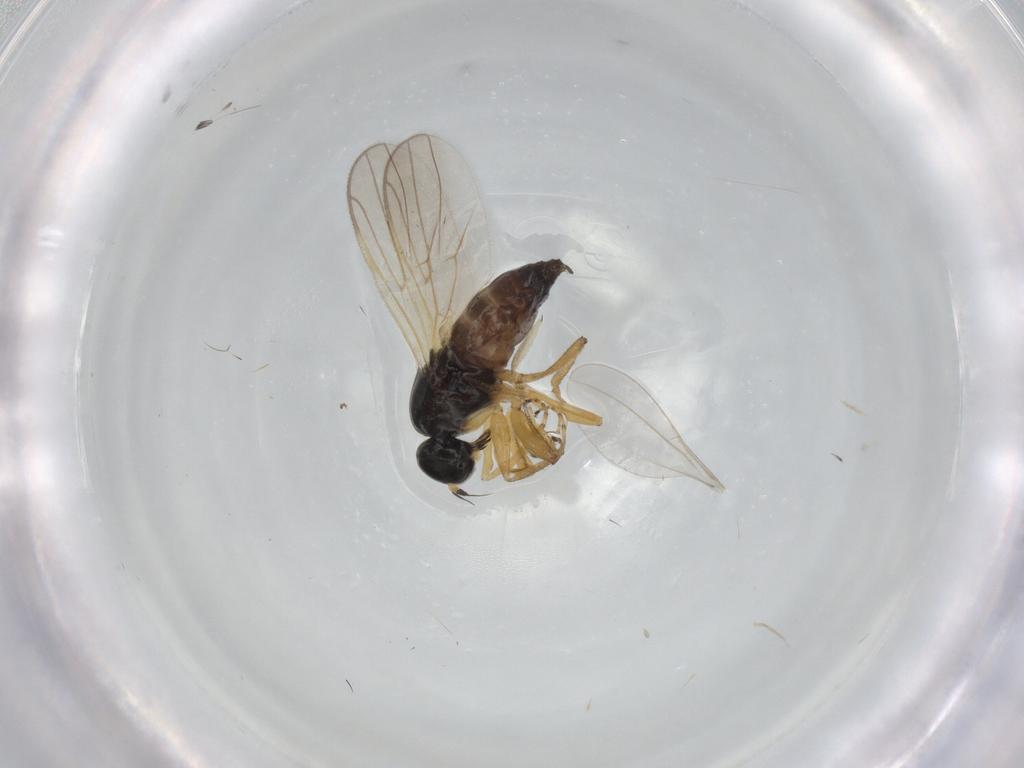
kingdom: Animalia
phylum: Arthropoda
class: Insecta
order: Diptera
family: Sciaridae
